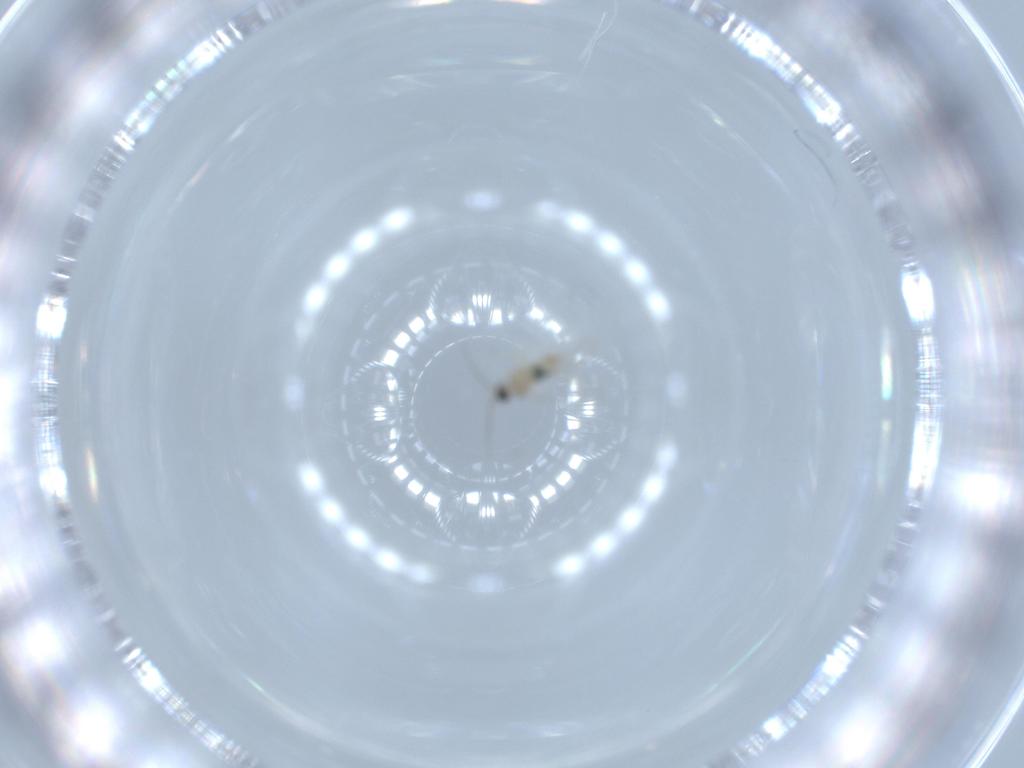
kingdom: Animalia
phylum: Arthropoda
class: Insecta
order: Diptera
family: Cecidomyiidae
